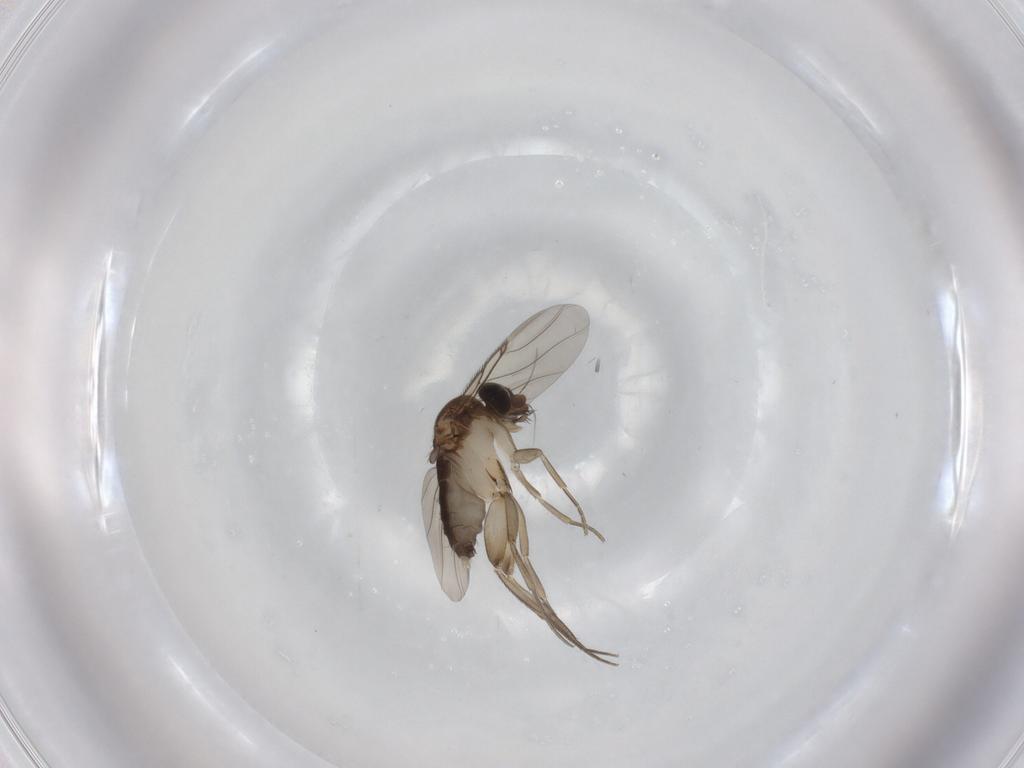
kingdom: Animalia
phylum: Arthropoda
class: Insecta
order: Diptera
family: Phoridae
